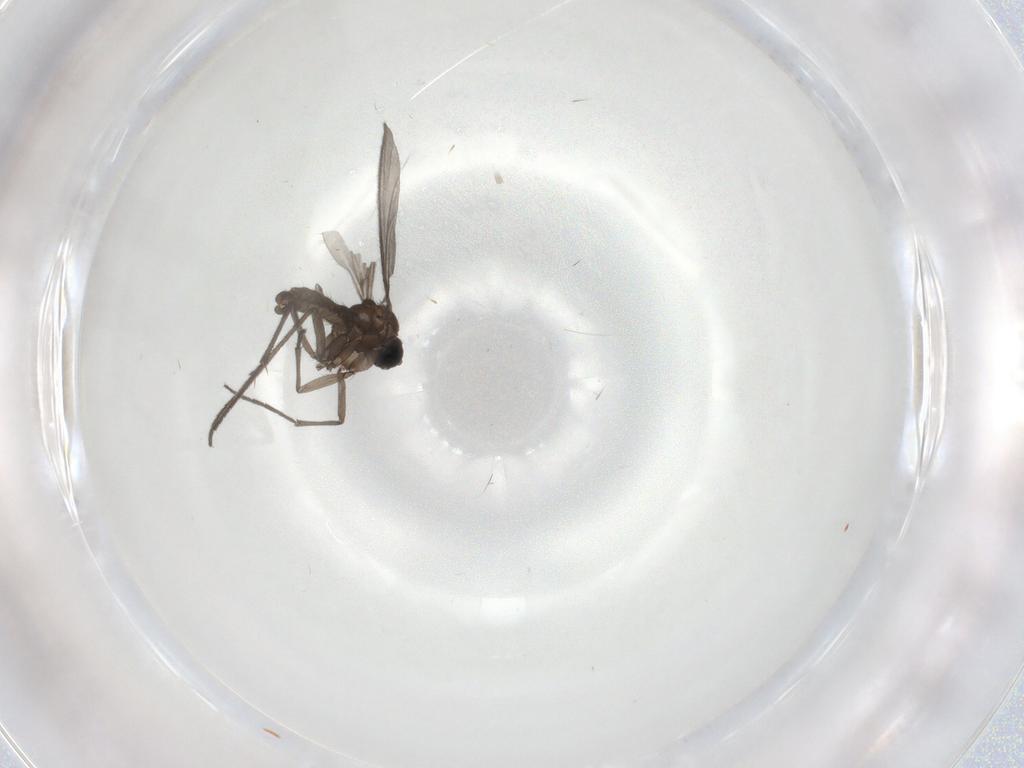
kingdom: Animalia
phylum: Arthropoda
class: Insecta
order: Diptera
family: Sciaridae
